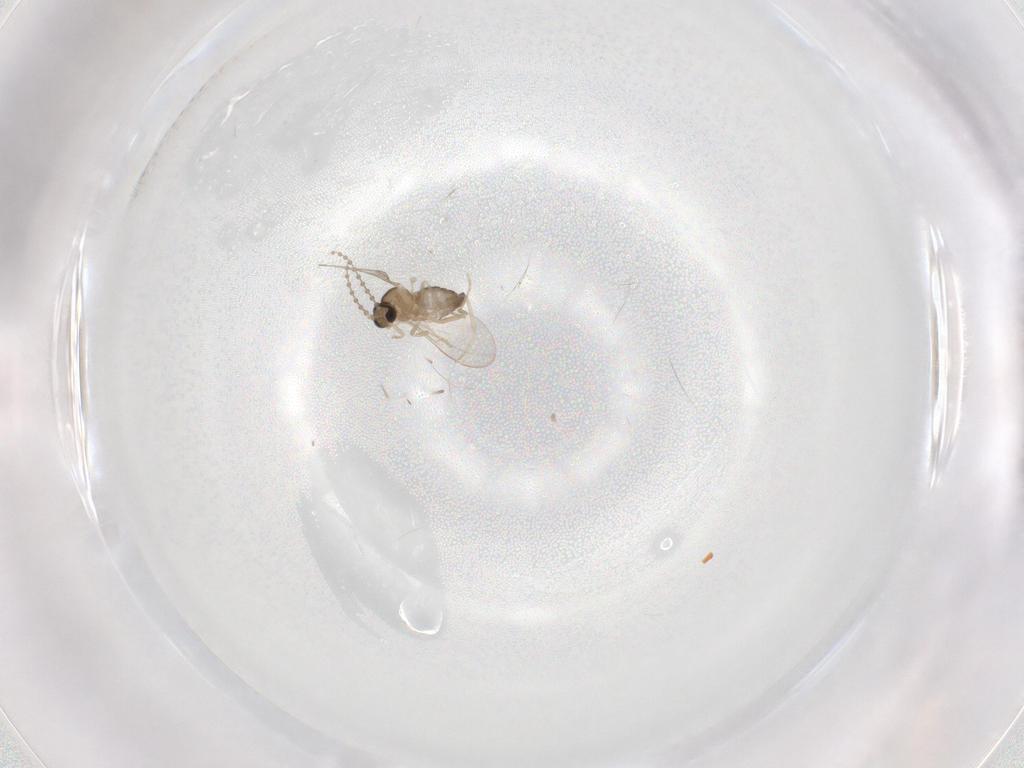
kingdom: Animalia
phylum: Arthropoda
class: Insecta
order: Diptera
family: Cecidomyiidae
